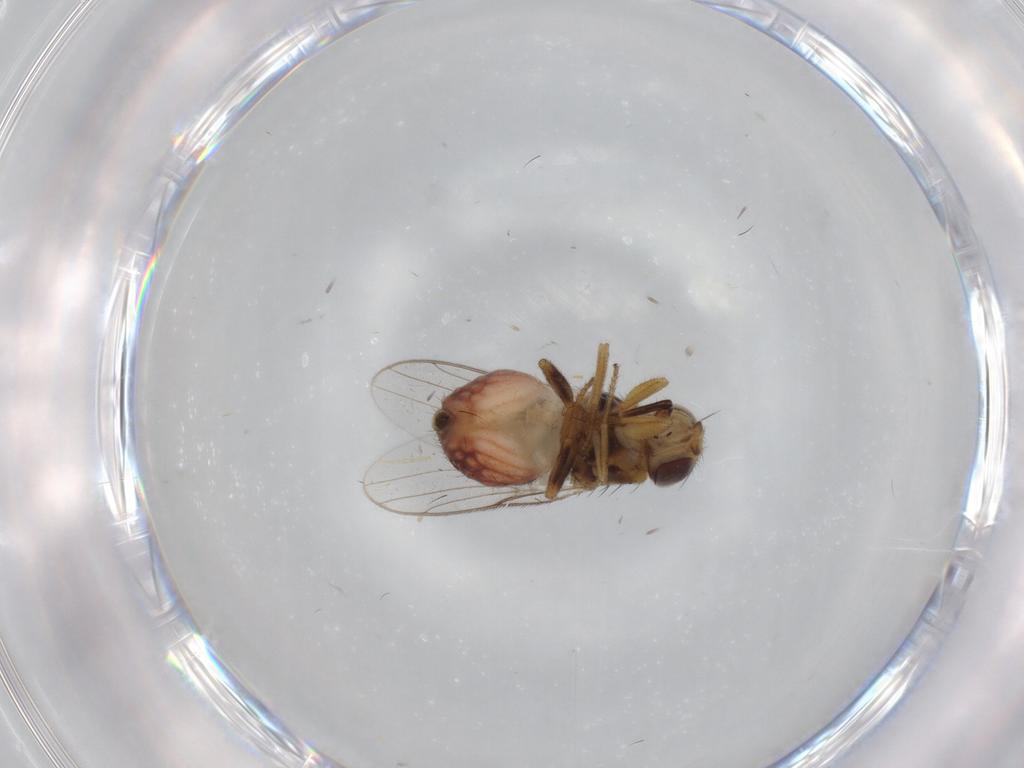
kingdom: Animalia
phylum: Arthropoda
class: Insecta
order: Diptera
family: Chloropidae
